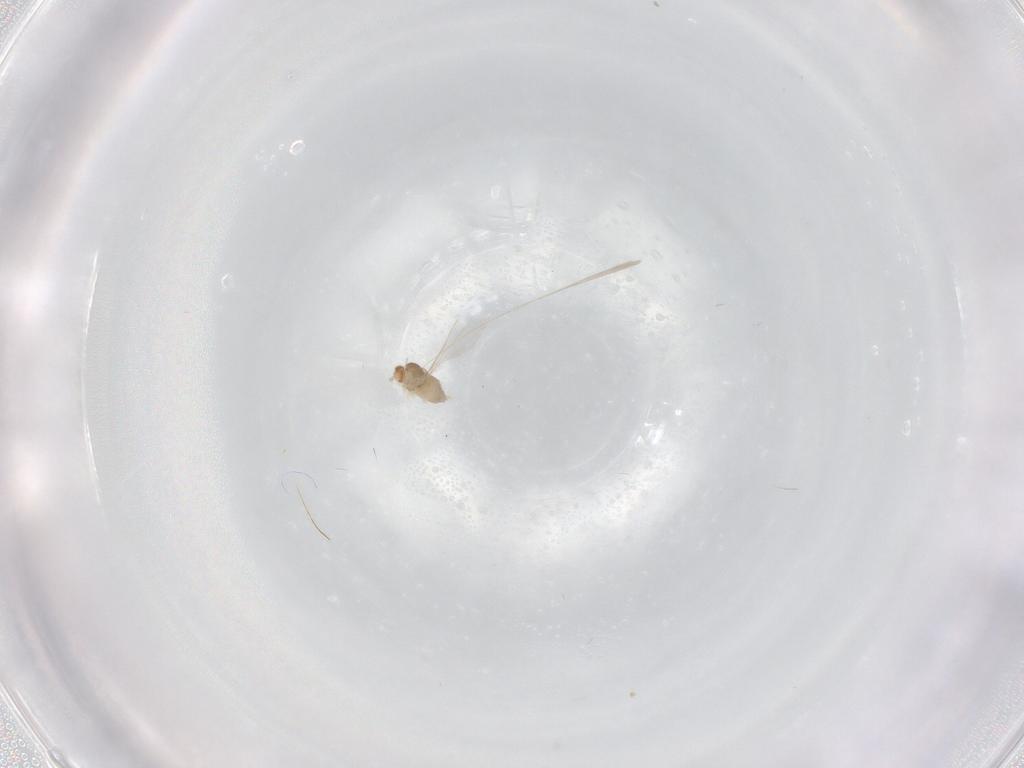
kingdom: Animalia
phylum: Arthropoda
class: Insecta
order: Diptera
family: Cecidomyiidae
